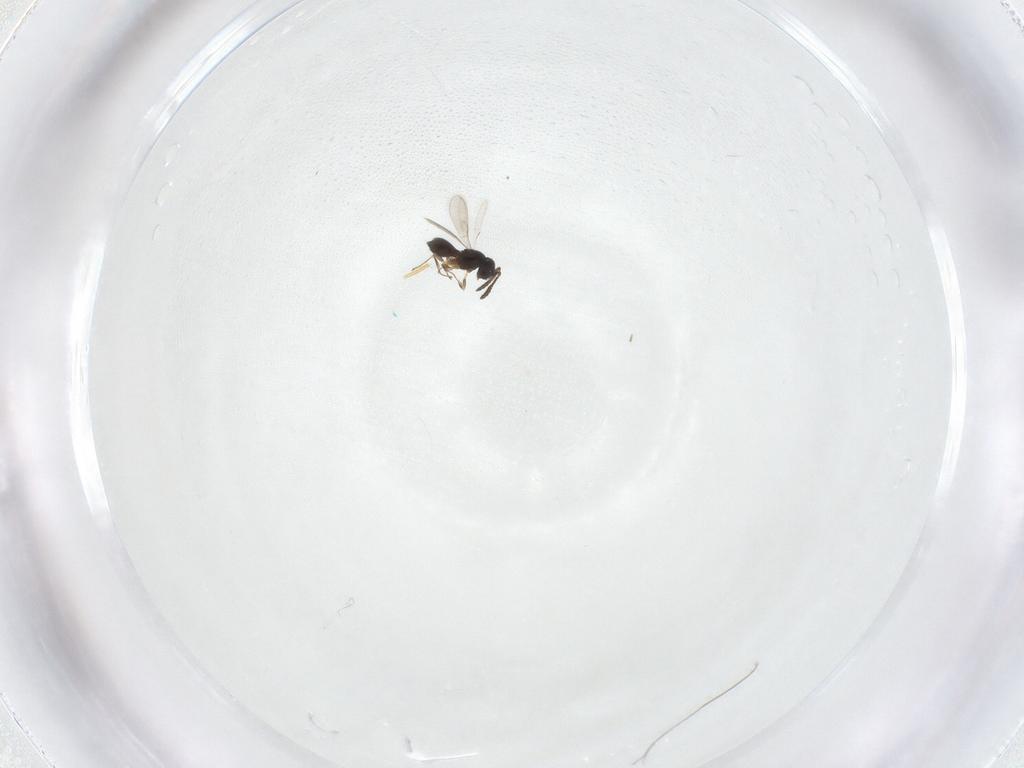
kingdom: Animalia
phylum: Arthropoda
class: Insecta
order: Hymenoptera
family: Scelionidae
